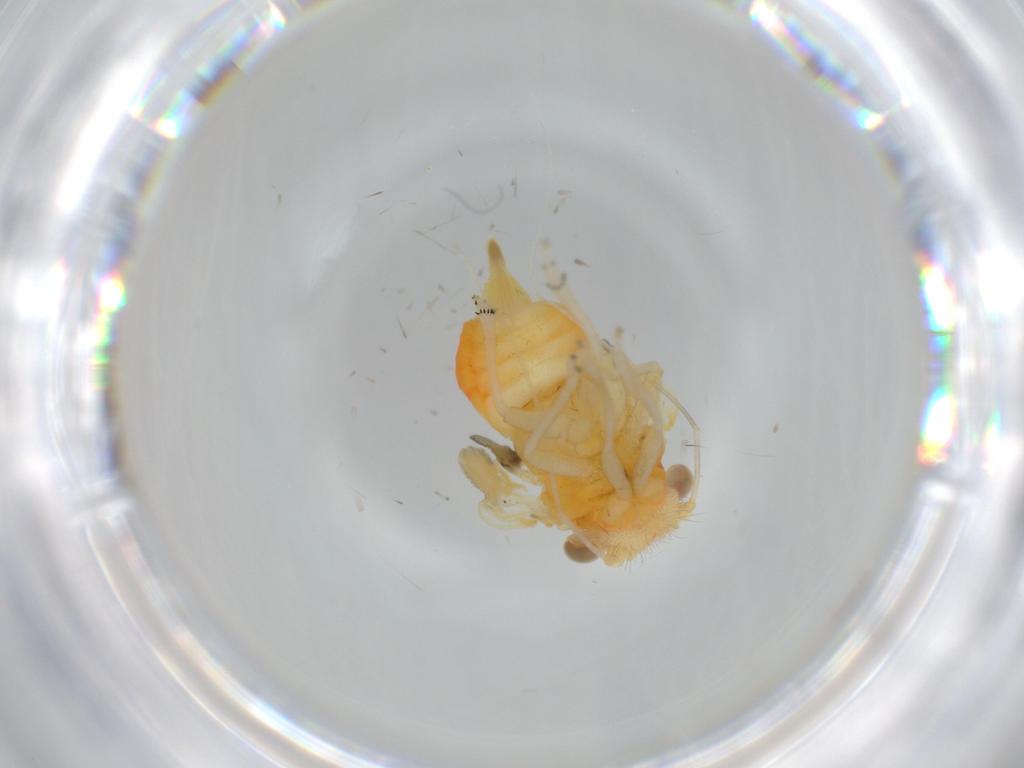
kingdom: Animalia
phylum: Arthropoda
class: Insecta
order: Hemiptera
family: Psyllidae
